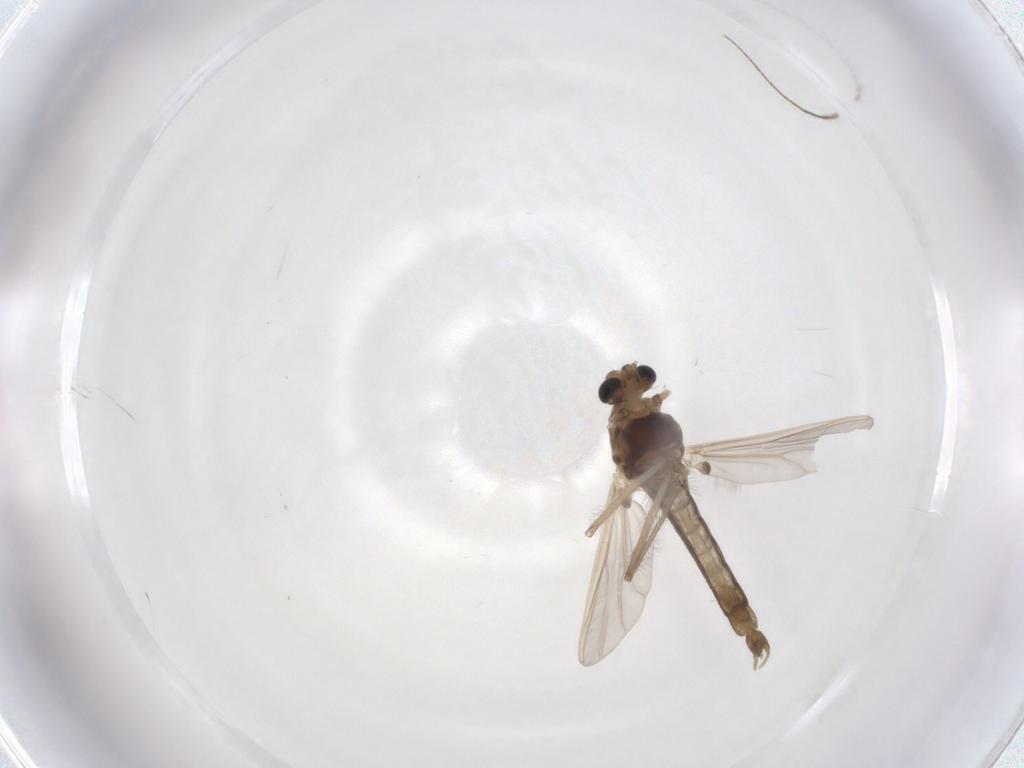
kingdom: Animalia
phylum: Arthropoda
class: Insecta
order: Diptera
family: Chironomidae
